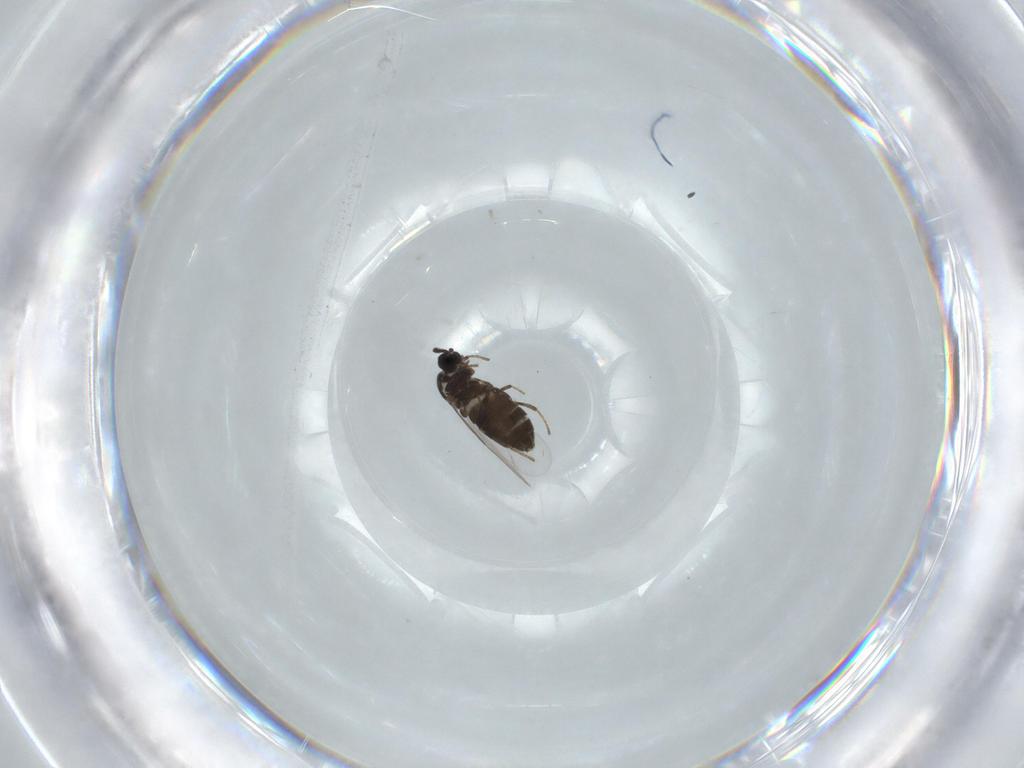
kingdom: Animalia
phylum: Arthropoda
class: Insecta
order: Diptera
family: Scatopsidae
